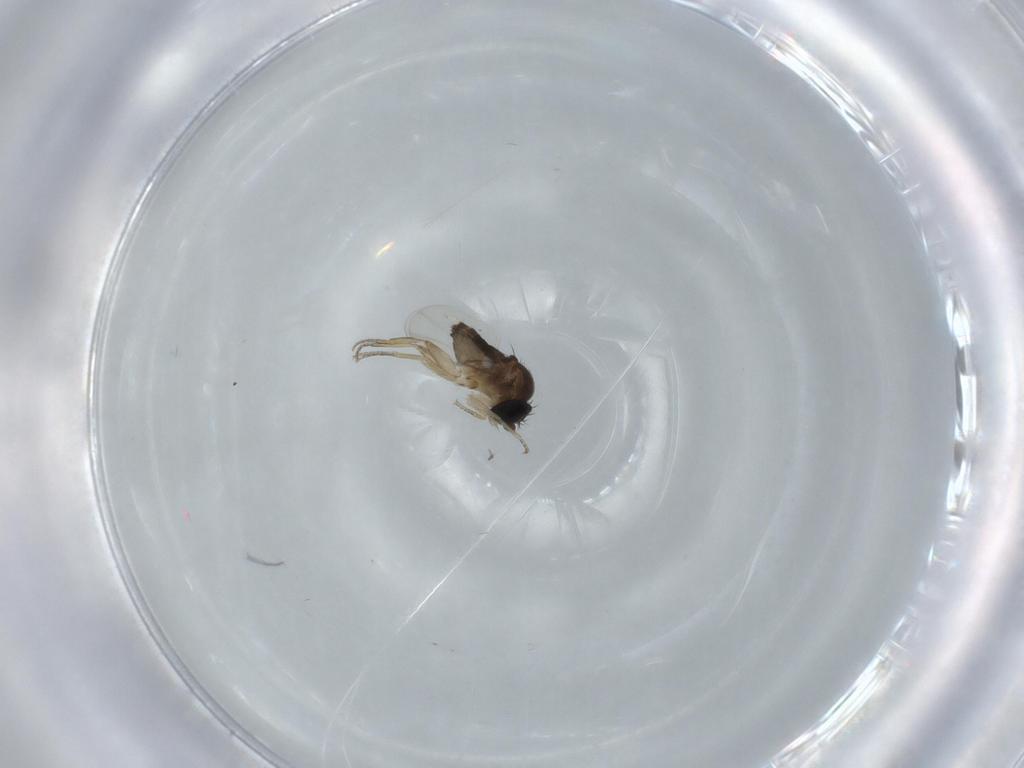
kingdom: Animalia
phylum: Arthropoda
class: Insecta
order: Diptera
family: Phoridae
